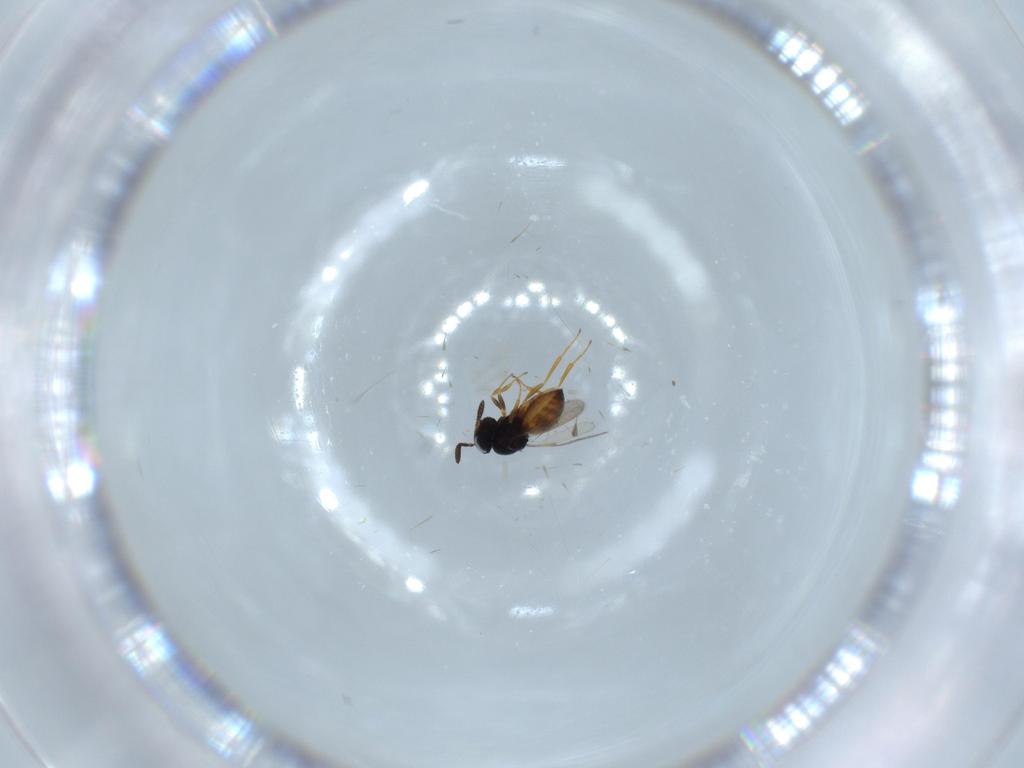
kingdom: Animalia
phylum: Arthropoda
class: Insecta
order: Hymenoptera
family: Bethylidae
